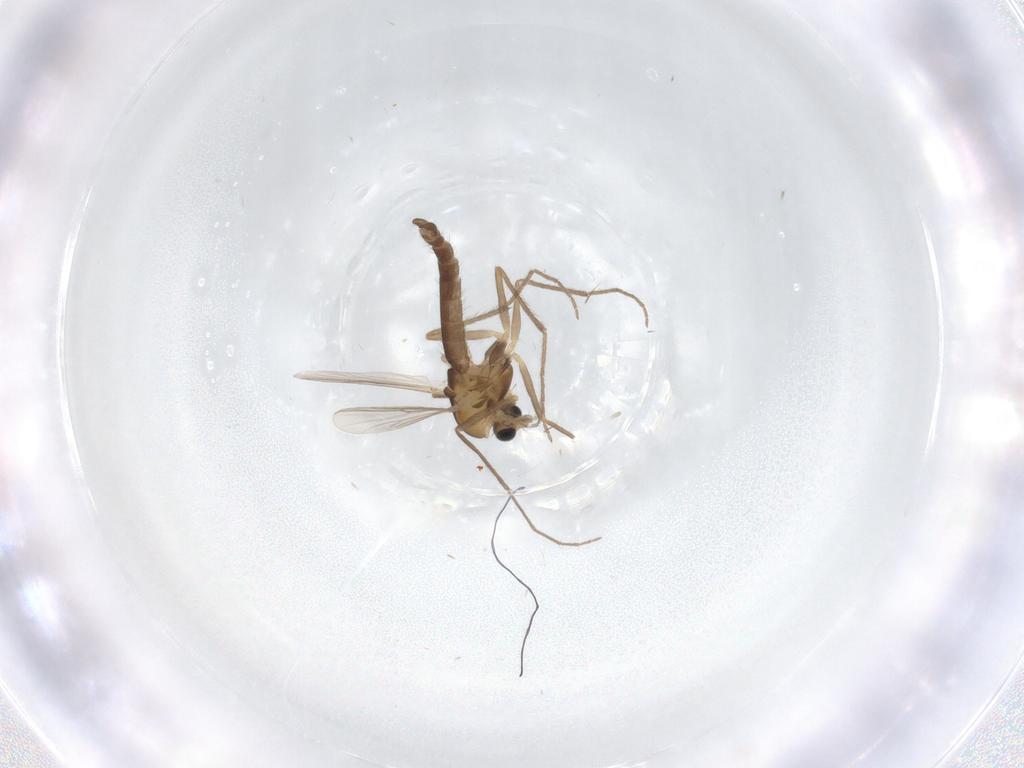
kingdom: Animalia
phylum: Arthropoda
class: Insecta
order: Diptera
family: Chironomidae
